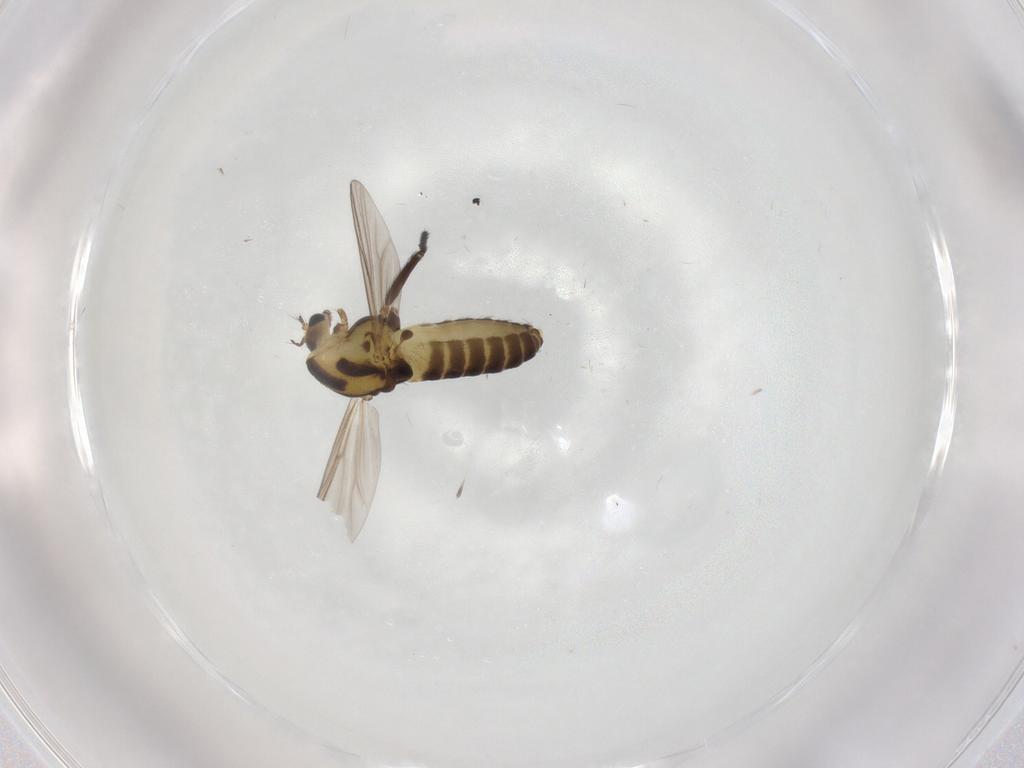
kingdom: Animalia
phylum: Arthropoda
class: Insecta
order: Diptera
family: Chironomidae
